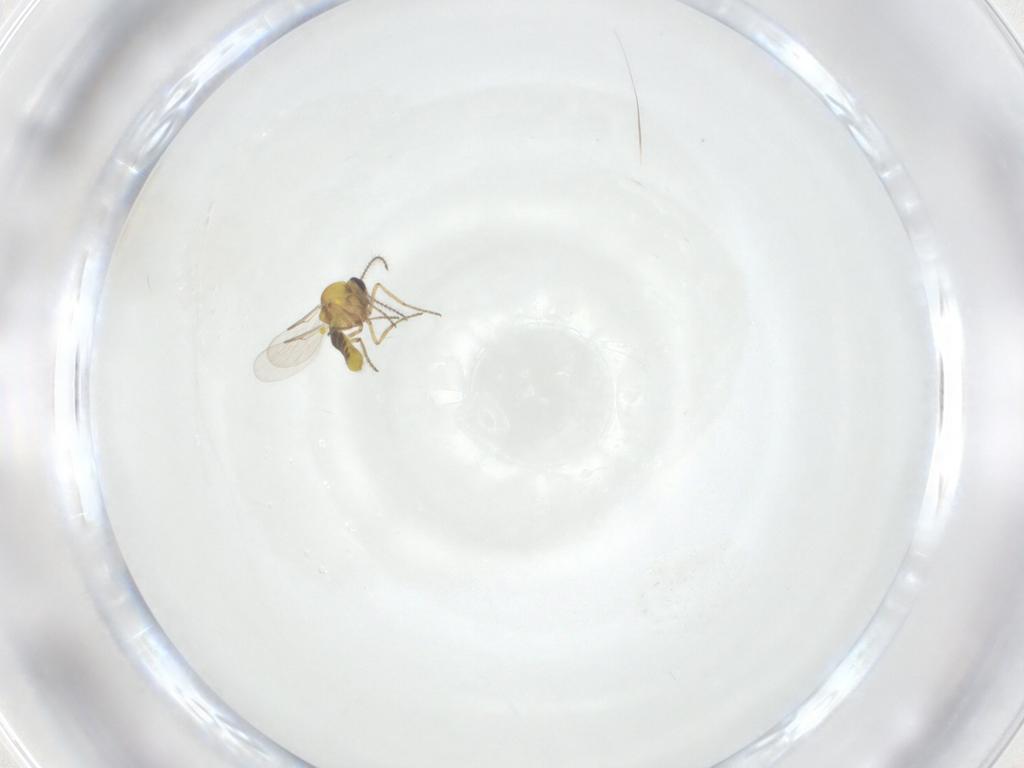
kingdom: Animalia
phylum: Arthropoda
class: Insecta
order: Diptera
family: Ceratopogonidae
